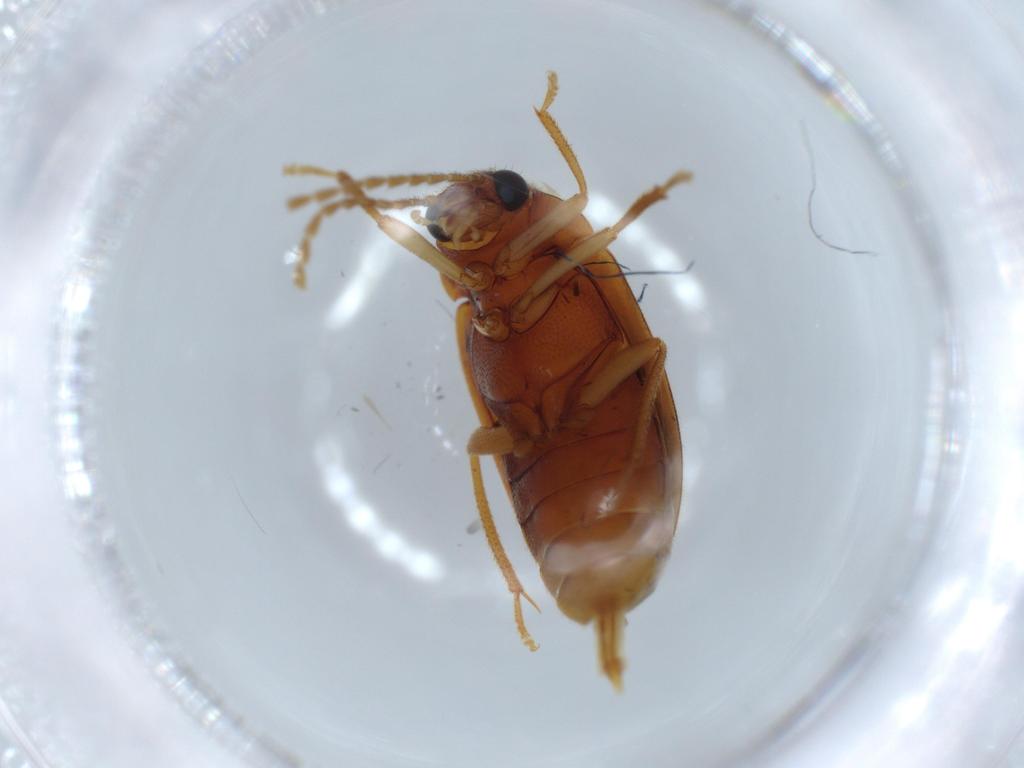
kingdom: Animalia
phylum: Arthropoda
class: Insecta
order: Coleoptera
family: Ptilodactylidae
